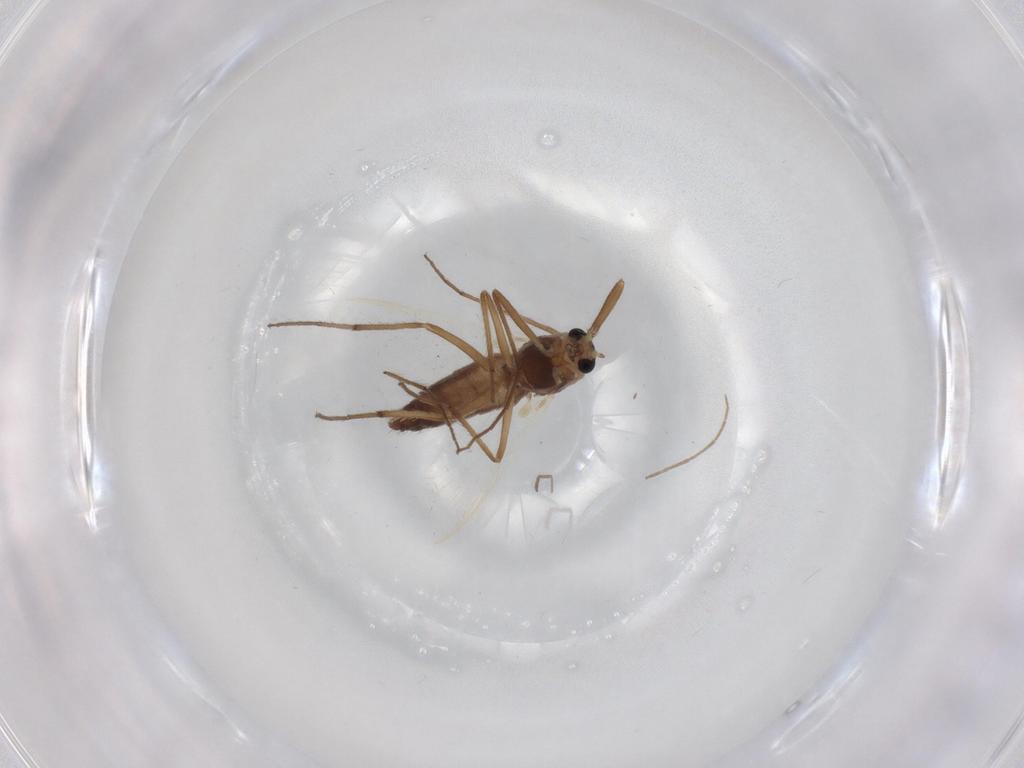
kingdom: Animalia
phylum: Arthropoda
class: Insecta
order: Diptera
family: Chironomidae
